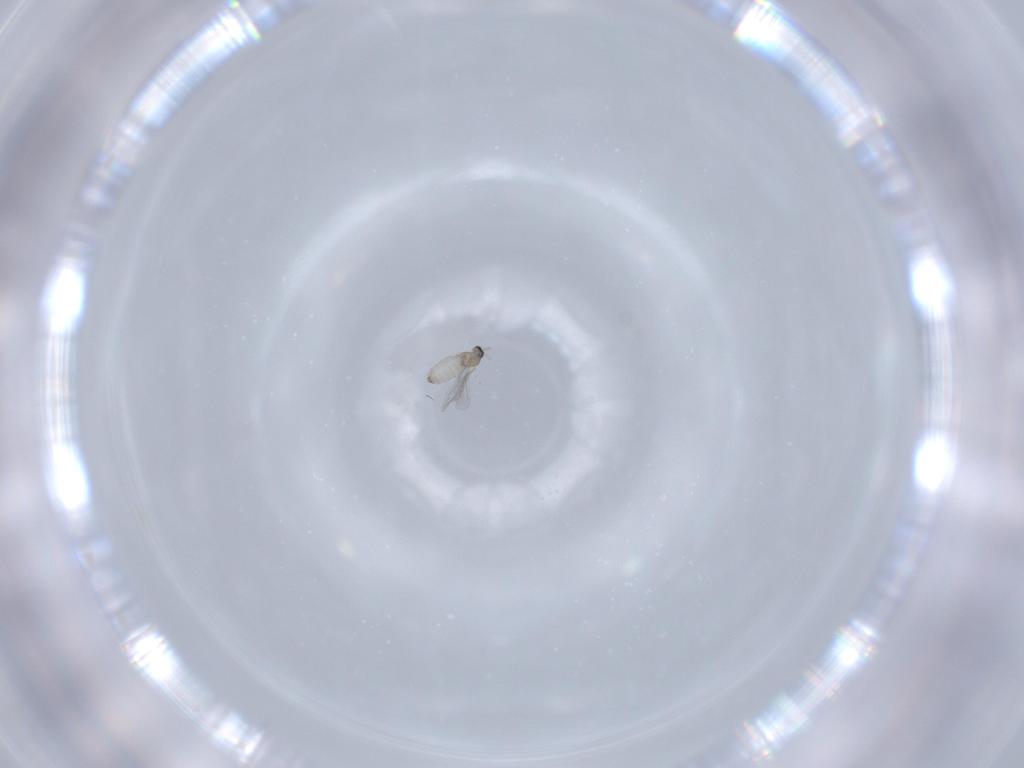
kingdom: Animalia
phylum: Arthropoda
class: Insecta
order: Diptera
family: Cecidomyiidae
